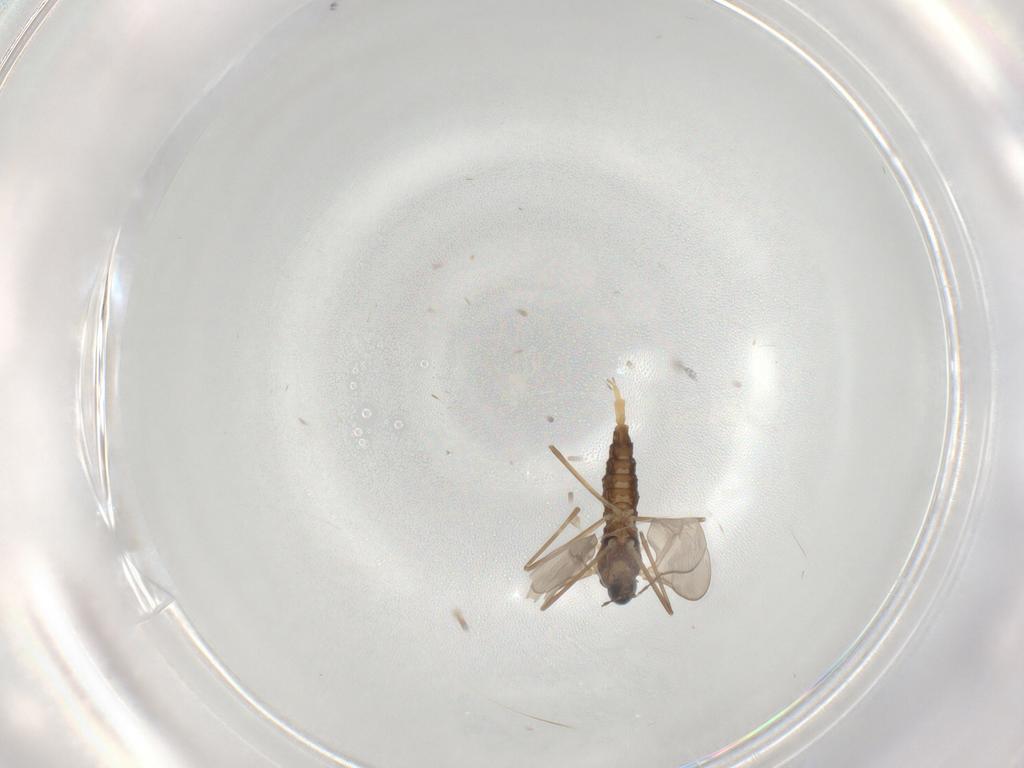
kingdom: Animalia
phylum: Arthropoda
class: Insecta
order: Diptera
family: Cecidomyiidae
